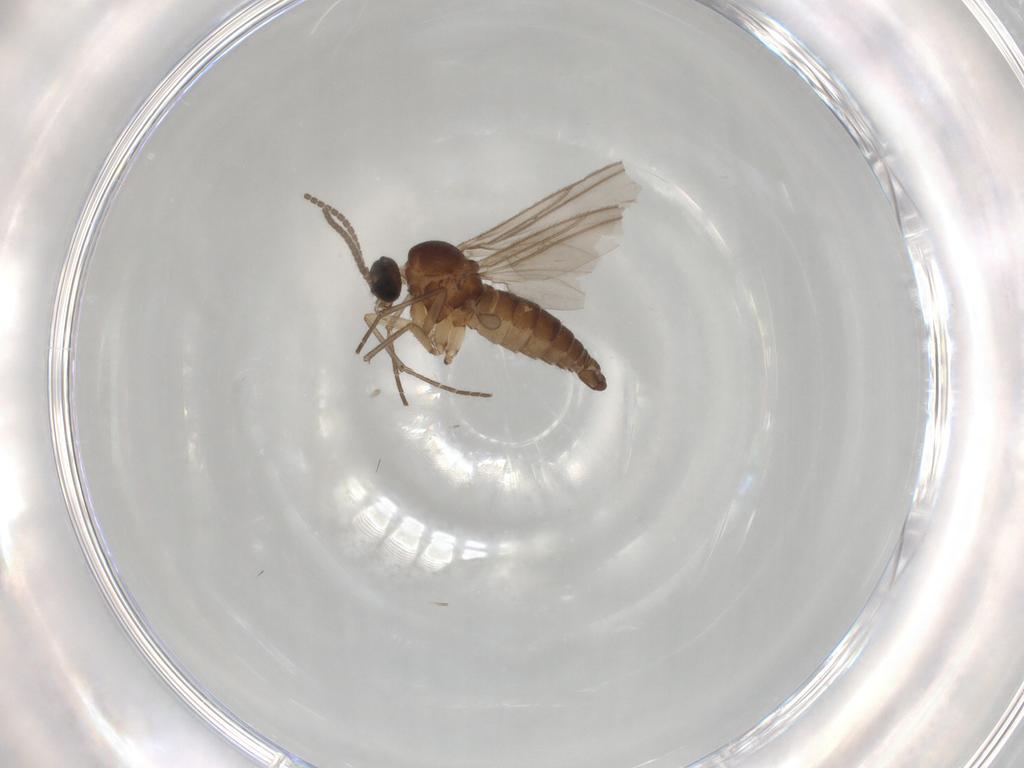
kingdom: Animalia
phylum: Arthropoda
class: Insecta
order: Diptera
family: Sciaridae
